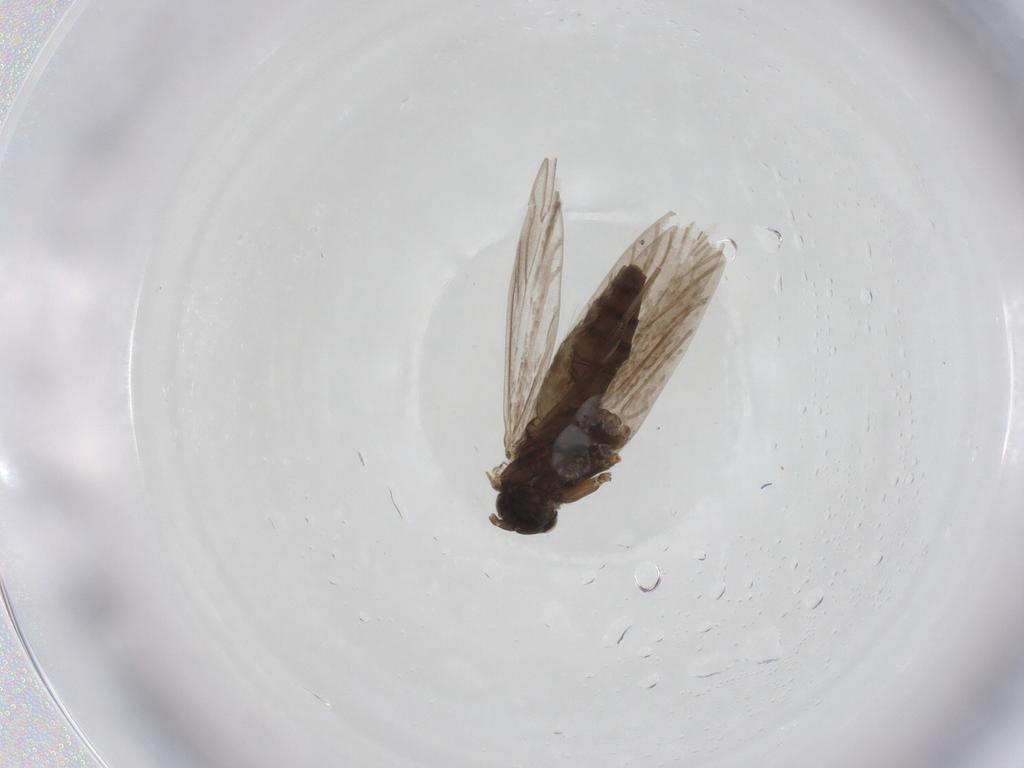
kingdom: Animalia
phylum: Arthropoda
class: Insecta
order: Lepidoptera
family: Micropterigidae
